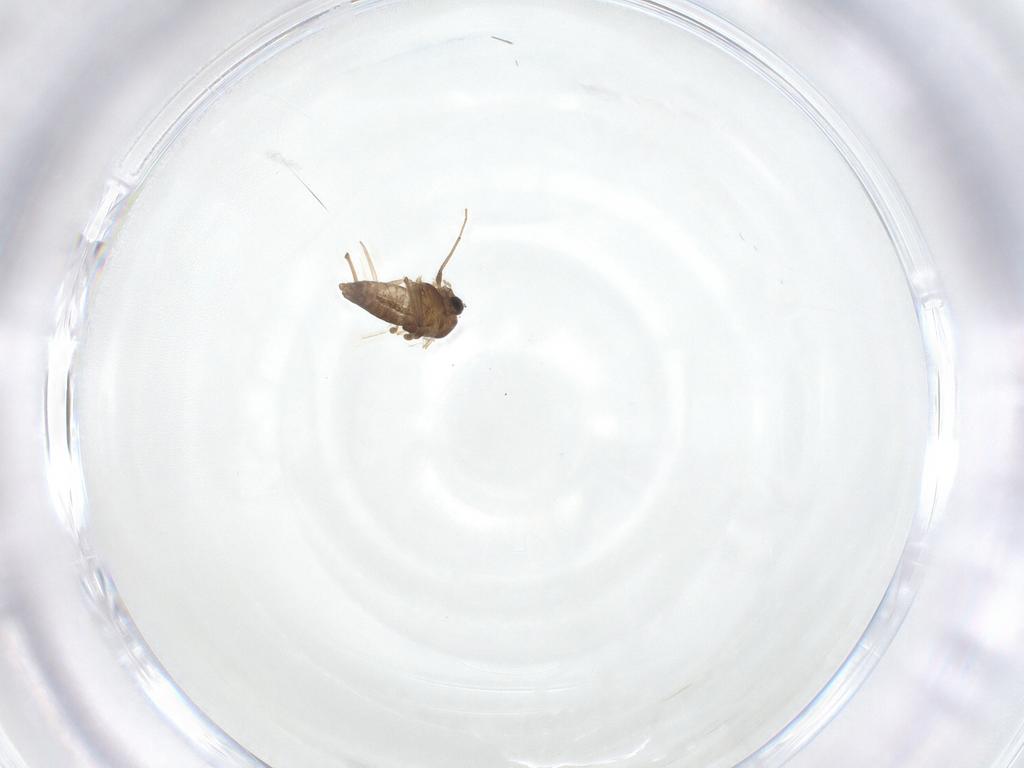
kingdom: Animalia
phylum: Arthropoda
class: Insecta
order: Diptera
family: Chironomidae
